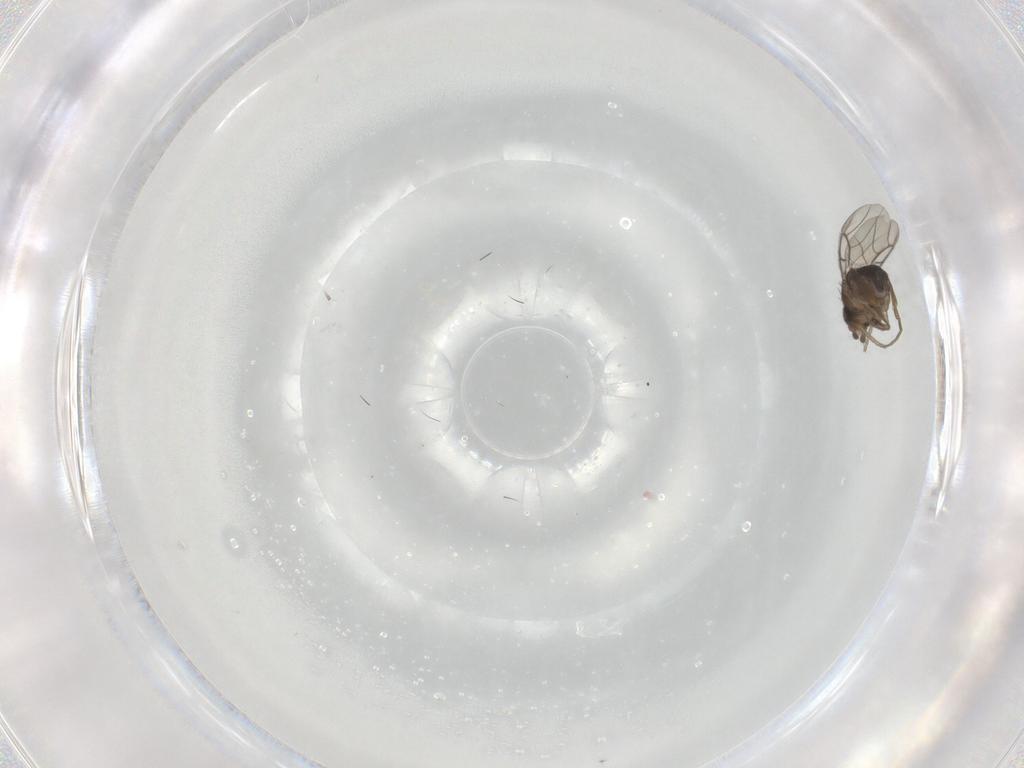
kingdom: Animalia
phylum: Arthropoda
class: Insecta
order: Diptera
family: Phoridae
